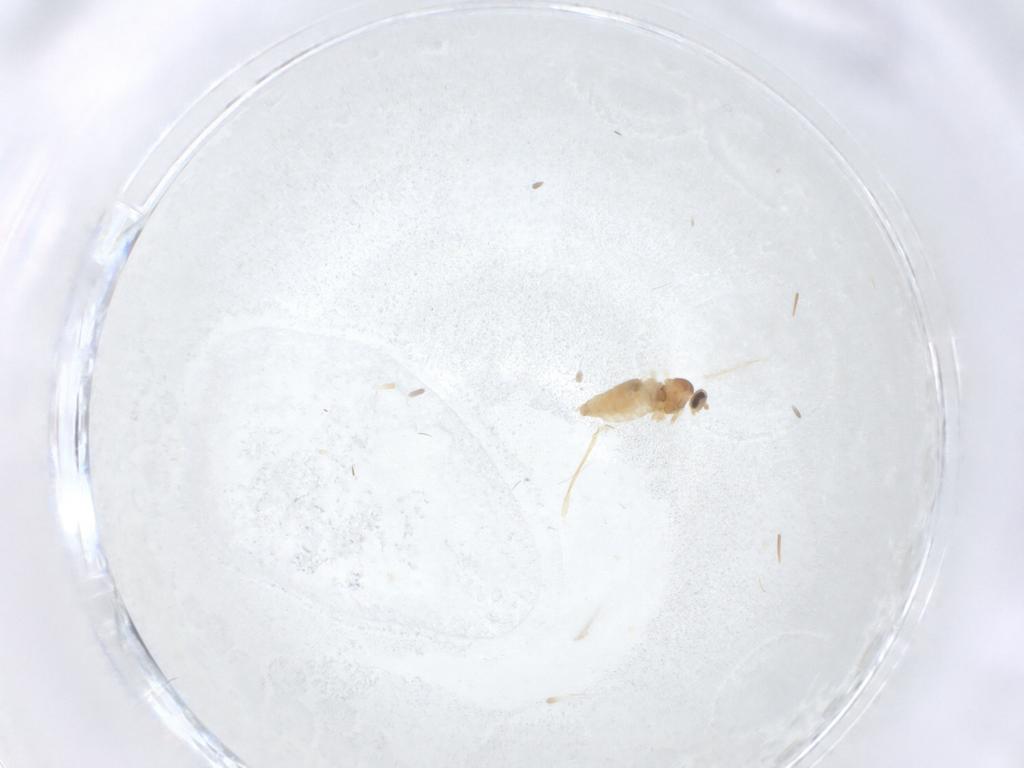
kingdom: Animalia
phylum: Arthropoda
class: Insecta
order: Diptera
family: Cecidomyiidae
